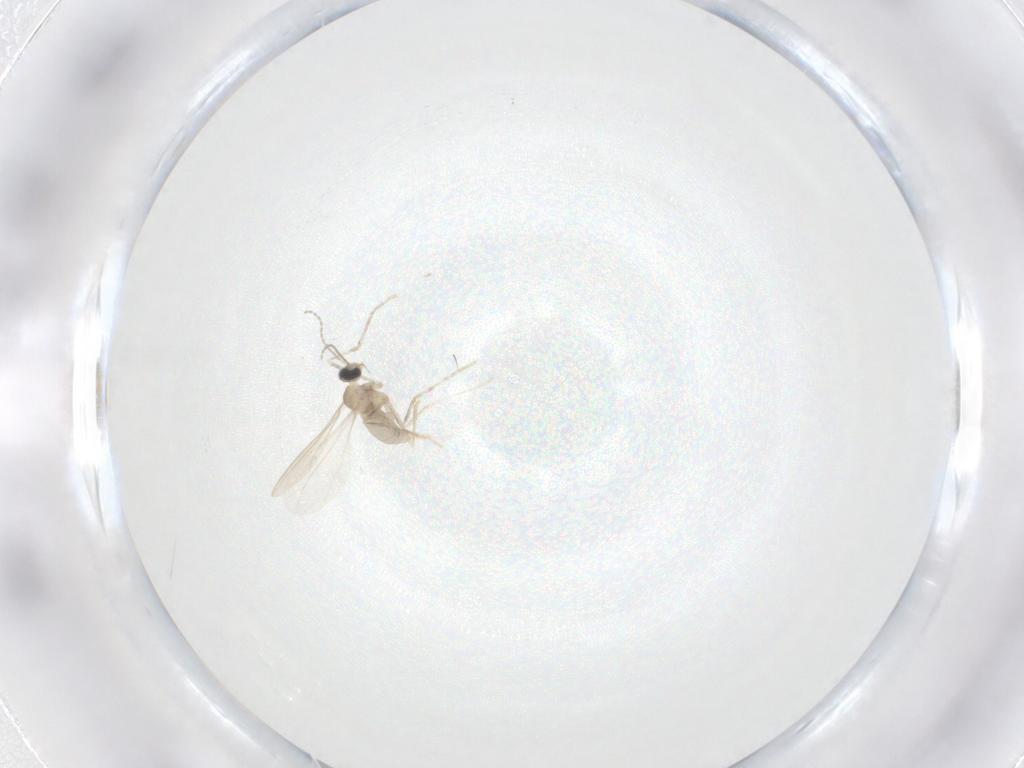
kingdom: Animalia
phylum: Arthropoda
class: Insecta
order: Diptera
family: Cecidomyiidae
